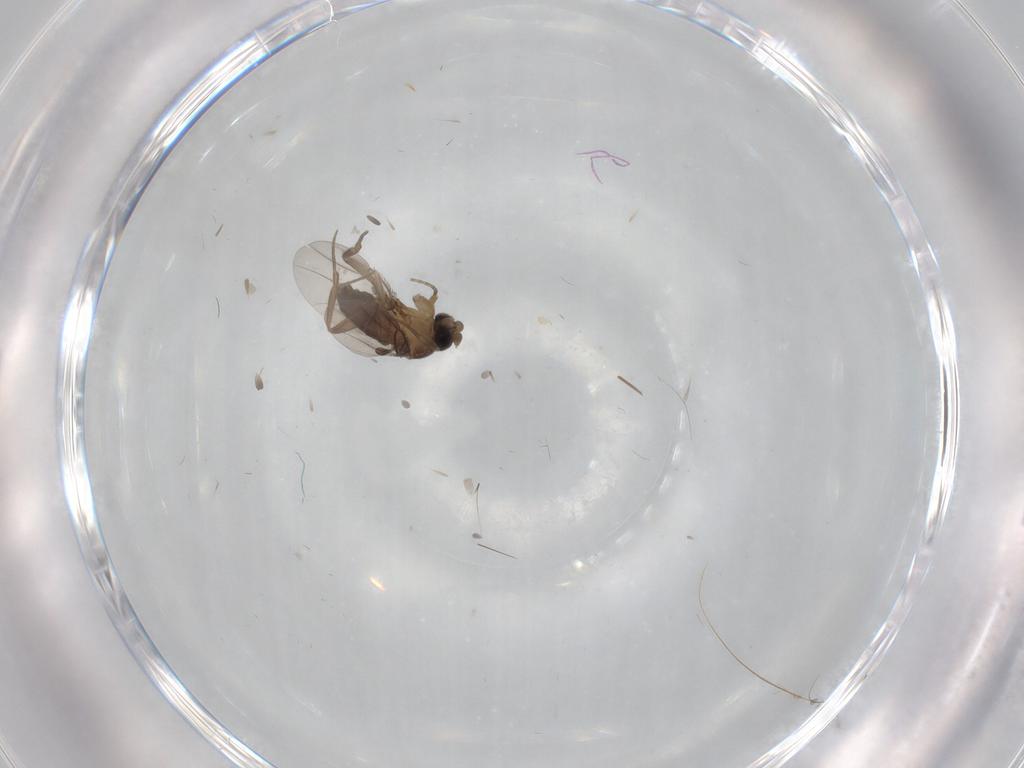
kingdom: Animalia
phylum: Arthropoda
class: Insecta
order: Diptera
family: Phoridae
